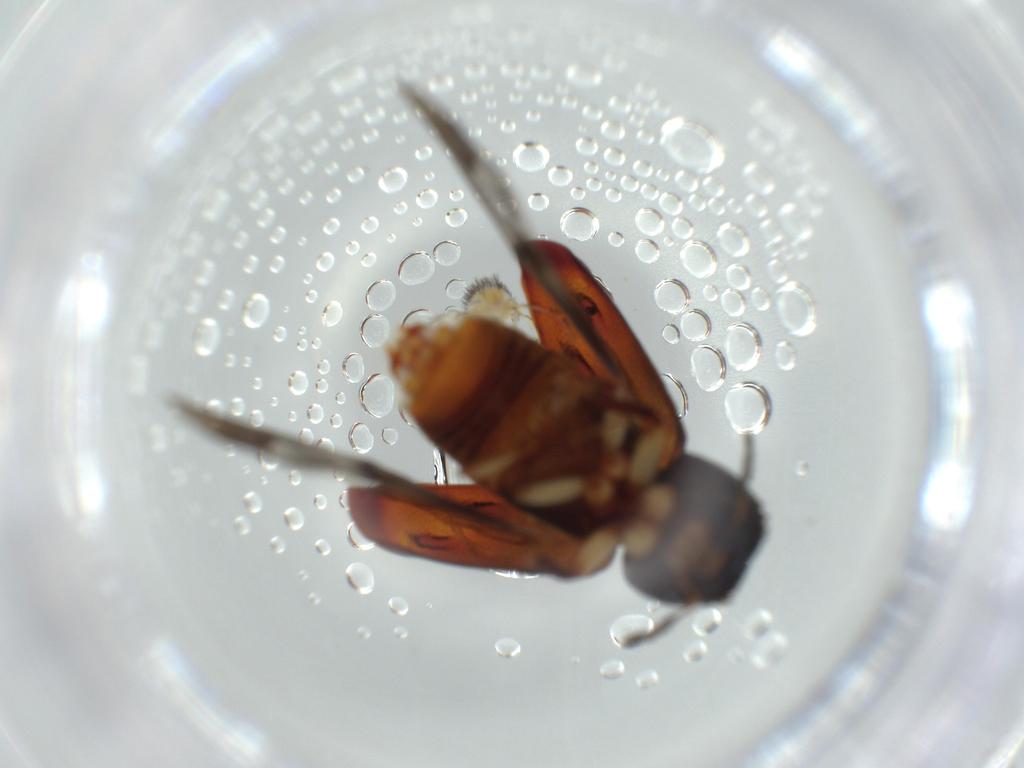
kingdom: Animalia
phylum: Arthropoda
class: Insecta
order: Coleoptera
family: Bostrichidae
